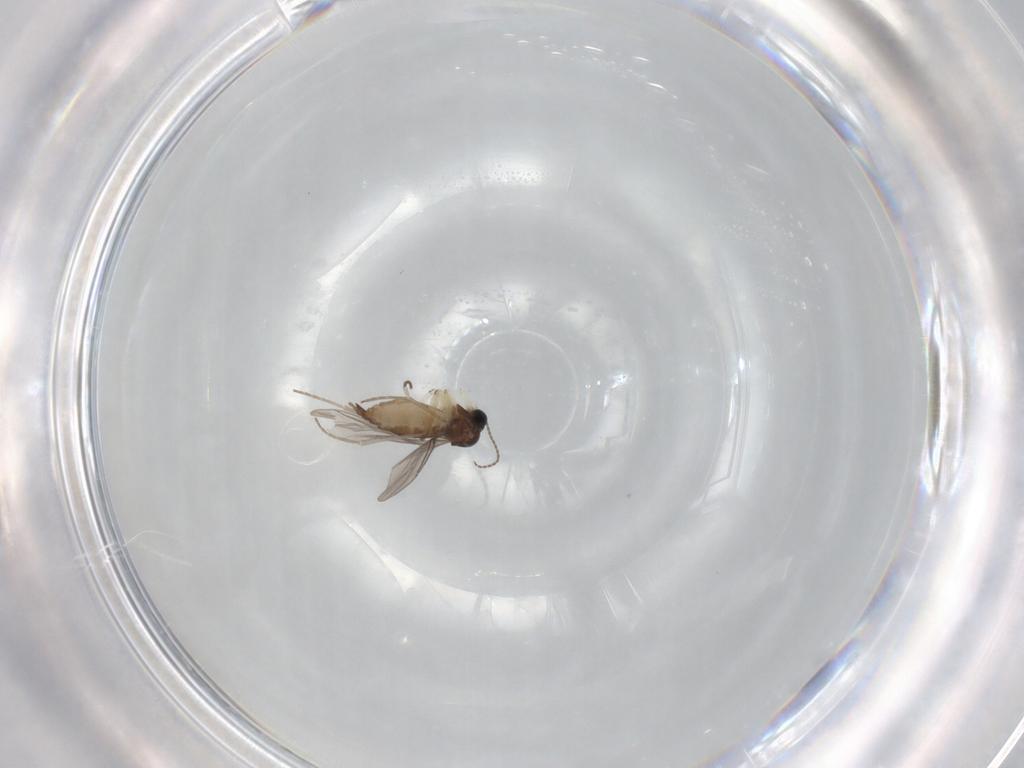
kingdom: Animalia
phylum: Arthropoda
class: Insecta
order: Diptera
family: Sciaridae
